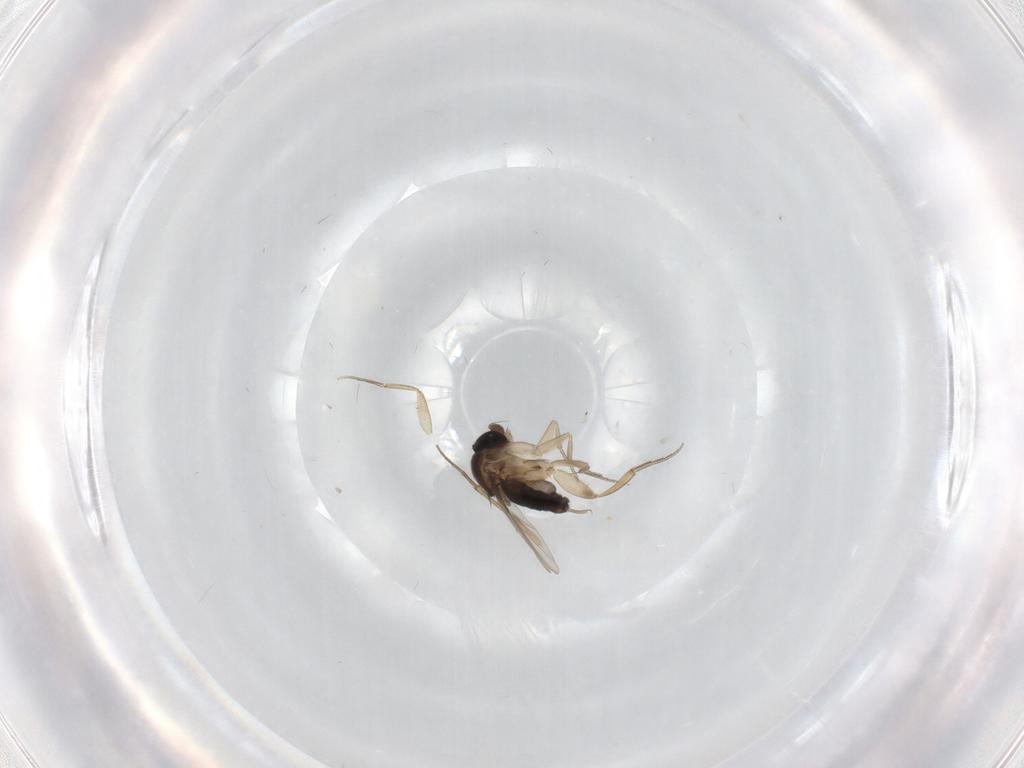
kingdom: Animalia
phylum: Arthropoda
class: Insecta
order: Diptera
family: Phoridae
